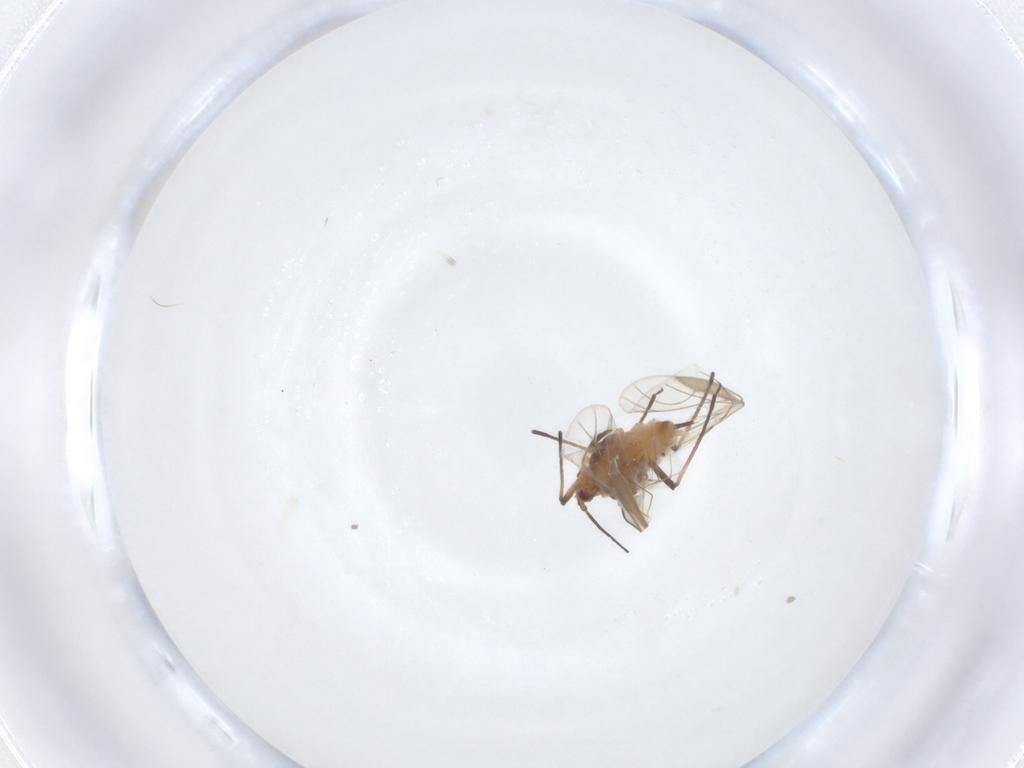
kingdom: Animalia
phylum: Arthropoda
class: Insecta
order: Hemiptera
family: Aphididae
